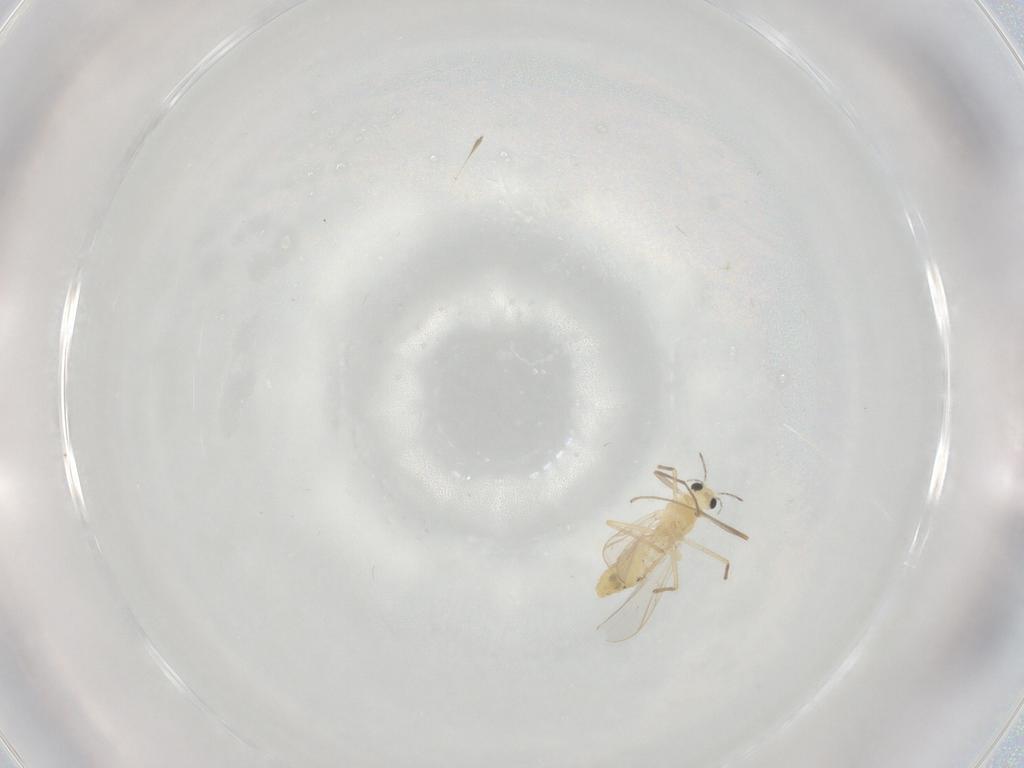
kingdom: Animalia
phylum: Arthropoda
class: Insecta
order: Diptera
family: Chironomidae
